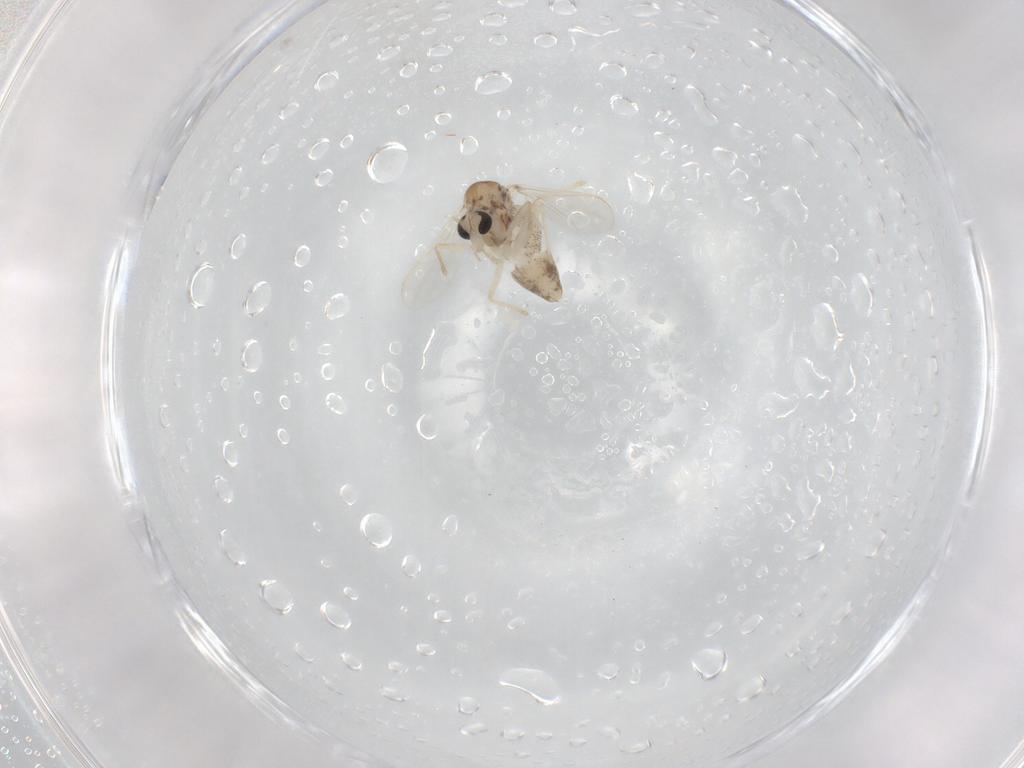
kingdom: Animalia
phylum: Arthropoda
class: Insecta
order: Diptera
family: Chironomidae
